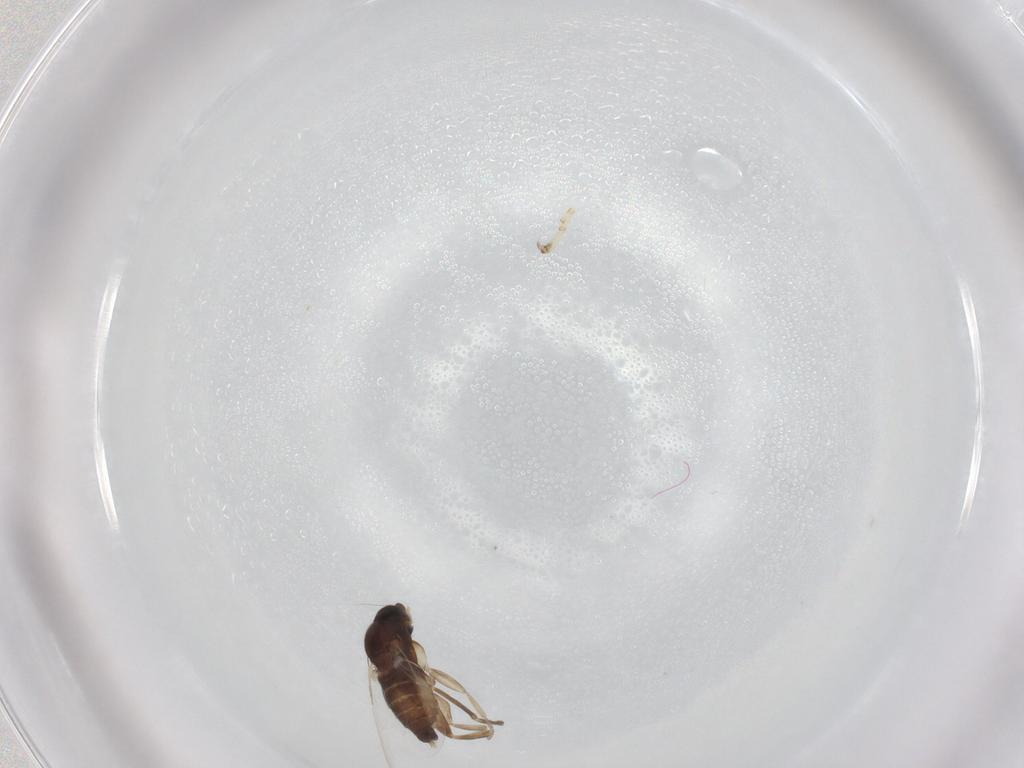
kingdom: Animalia
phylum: Arthropoda
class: Insecta
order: Diptera
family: Phoridae
